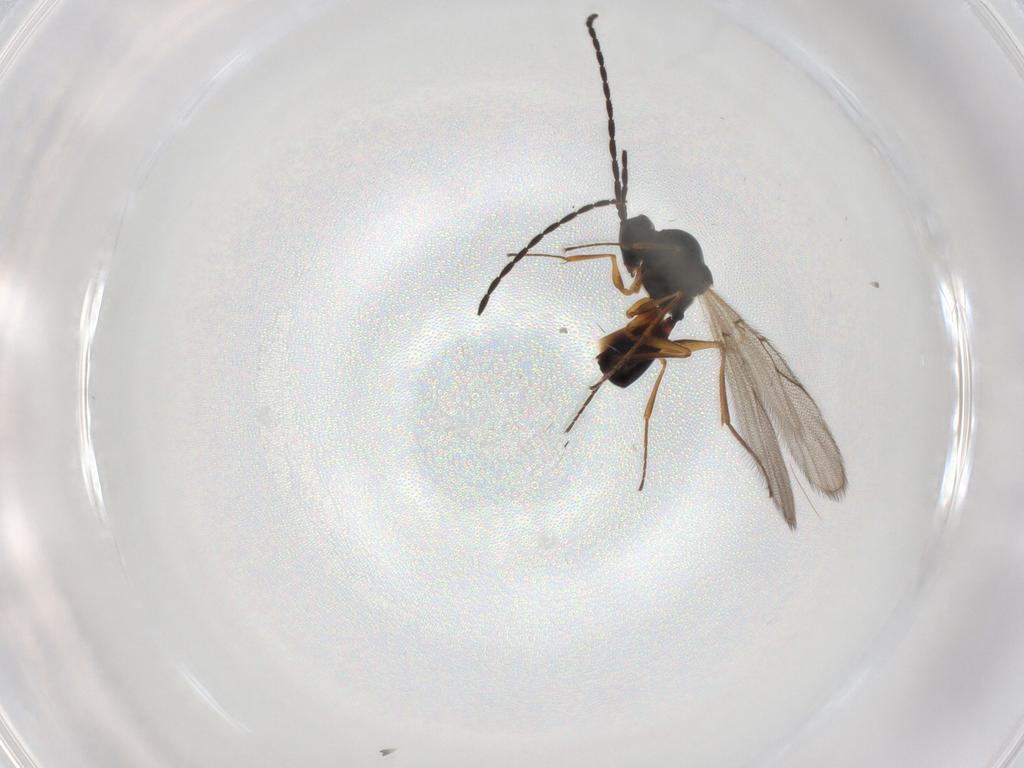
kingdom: Animalia
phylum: Arthropoda
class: Insecta
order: Hymenoptera
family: Figitidae
